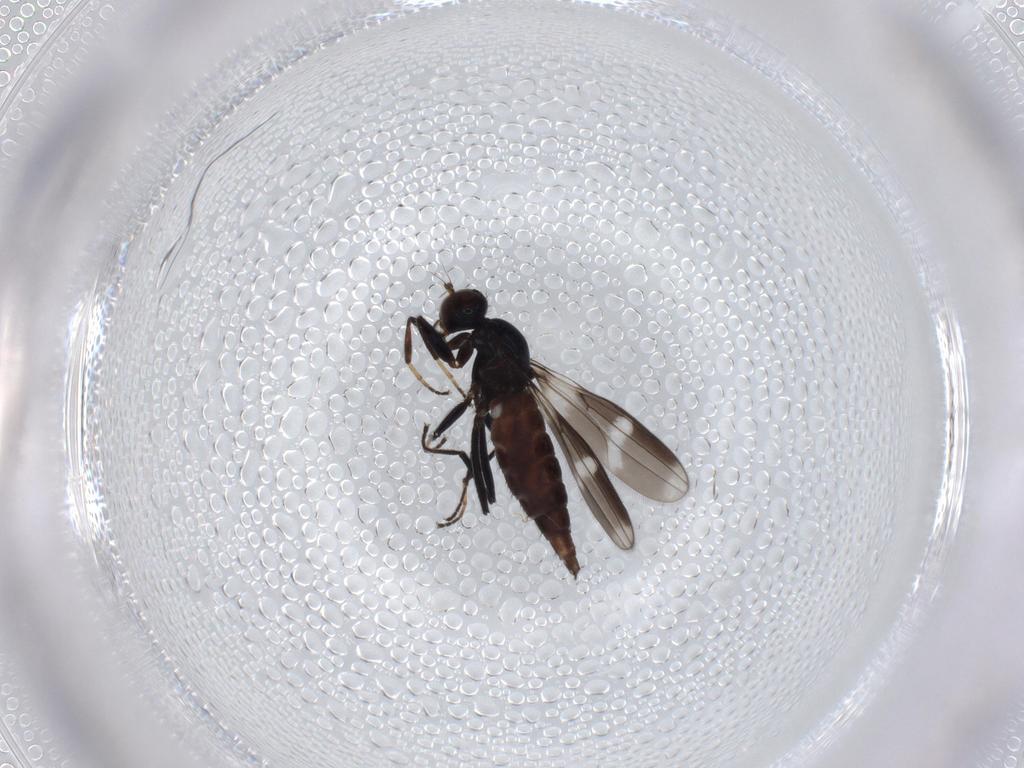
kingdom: Animalia
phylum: Arthropoda
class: Insecta
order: Diptera
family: Hybotidae
